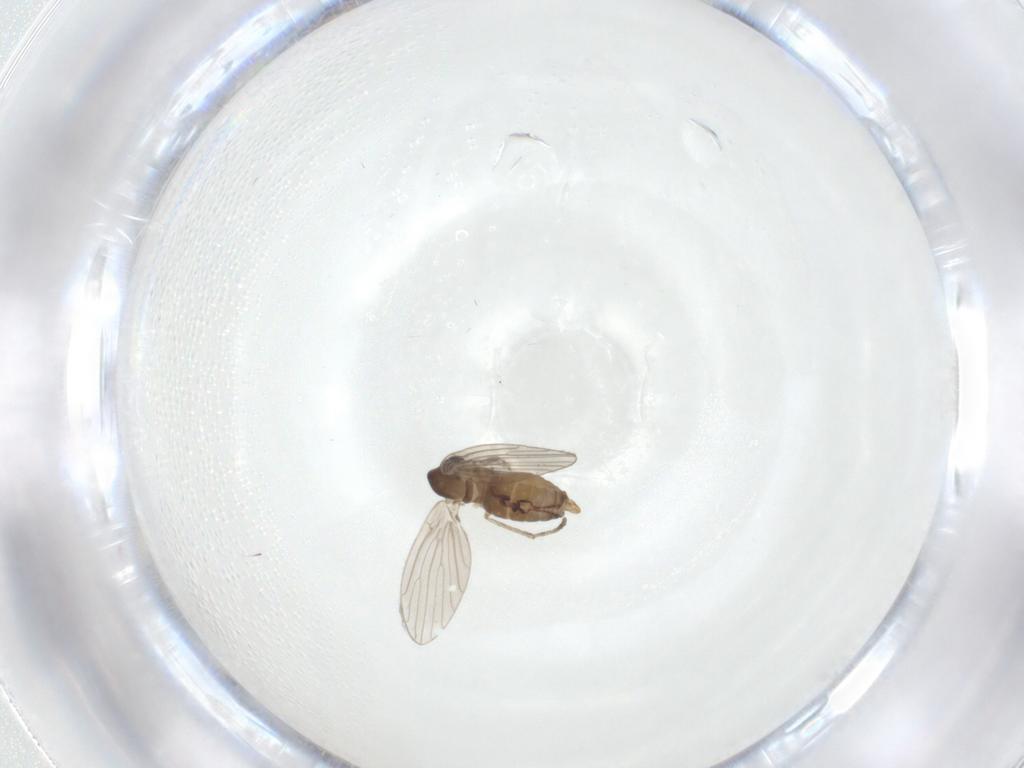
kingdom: Animalia
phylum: Arthropoda
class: Insecta
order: Diptera
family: Psychodidae
